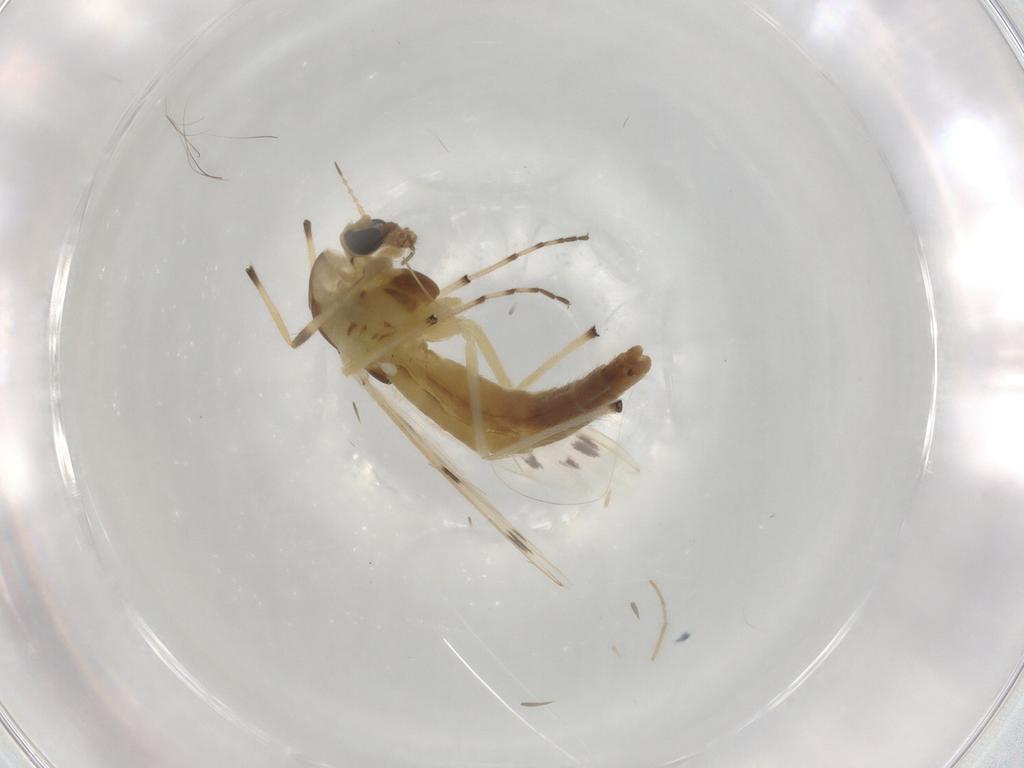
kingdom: Animalia
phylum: Arthropoda
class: Insecta
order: Diptera
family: Chironomidae
